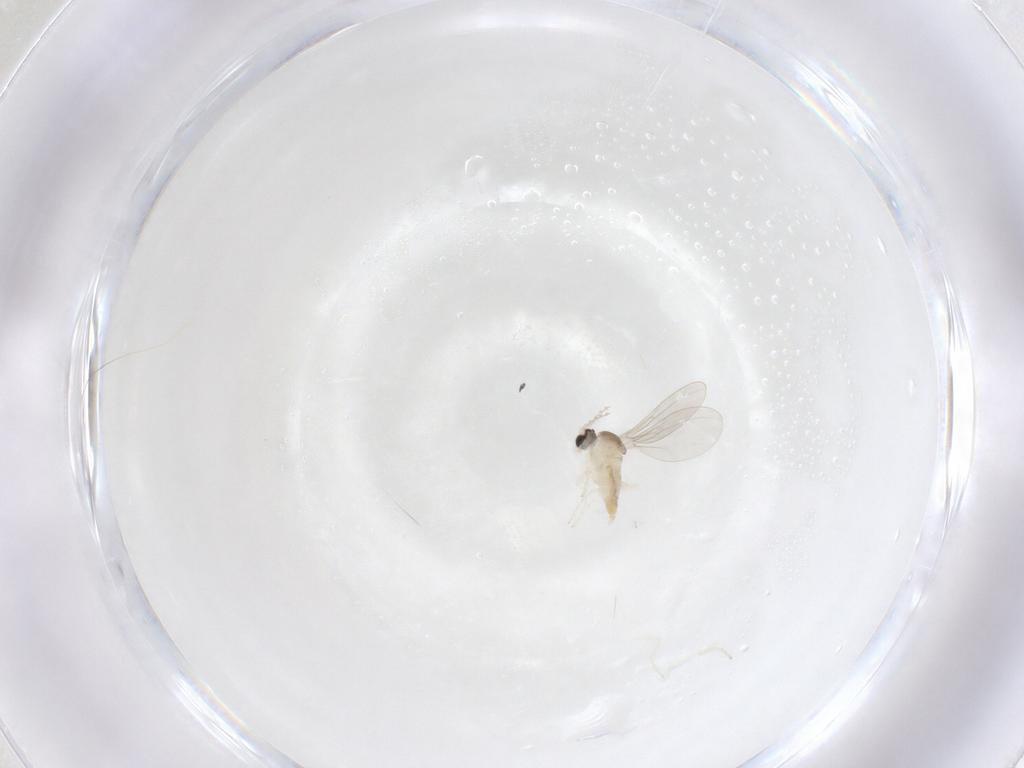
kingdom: Animalia
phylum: Arthropoda
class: Insecta
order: Diptera
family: Cecidomyiidae
